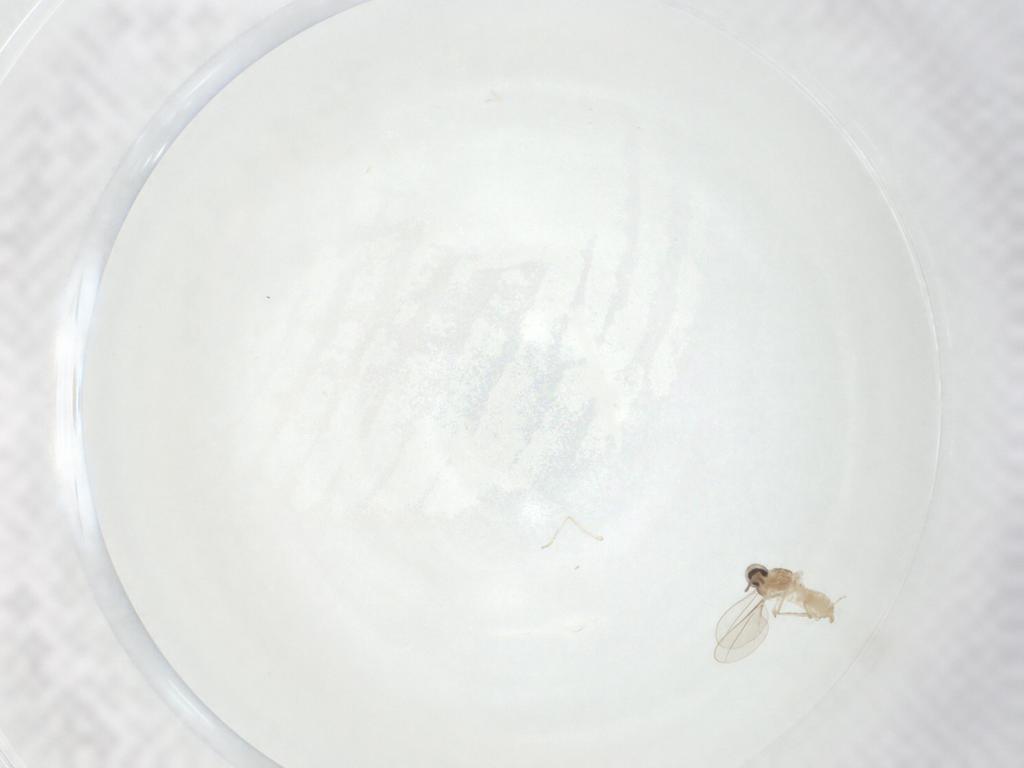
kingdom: Animalia
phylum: Arthropoda
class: Insecta
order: Diptera
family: Cecidomyiidae
